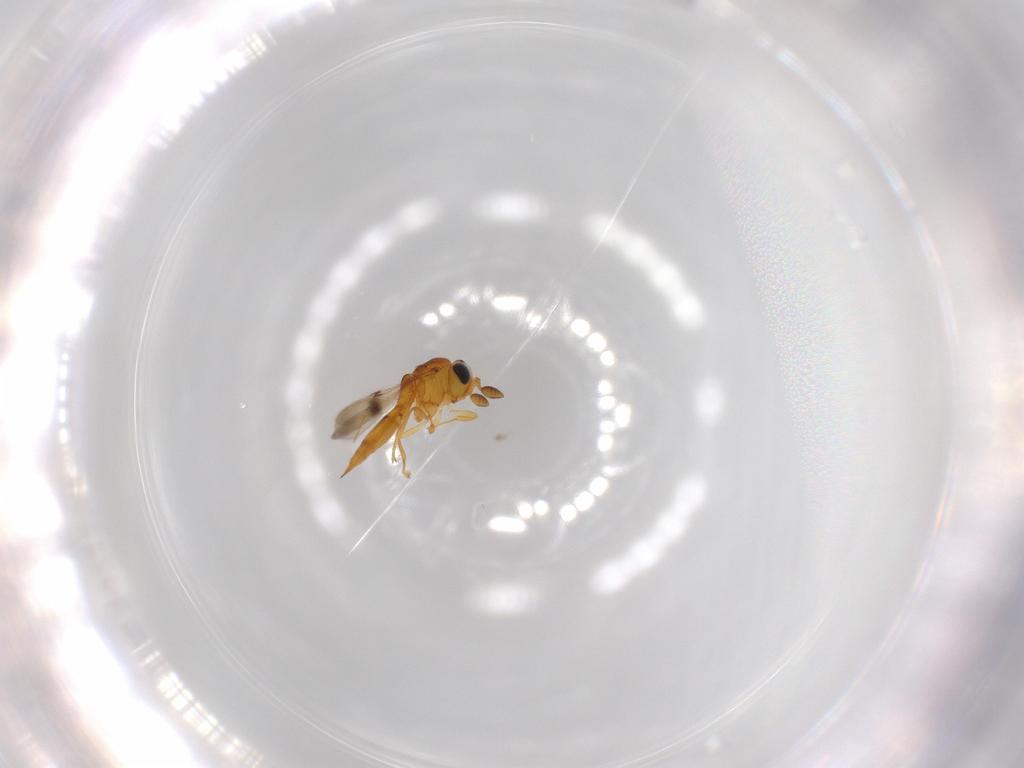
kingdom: Animalia
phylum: Arthropoda
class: Insecta
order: Hymenoptera
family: Scelionidae
